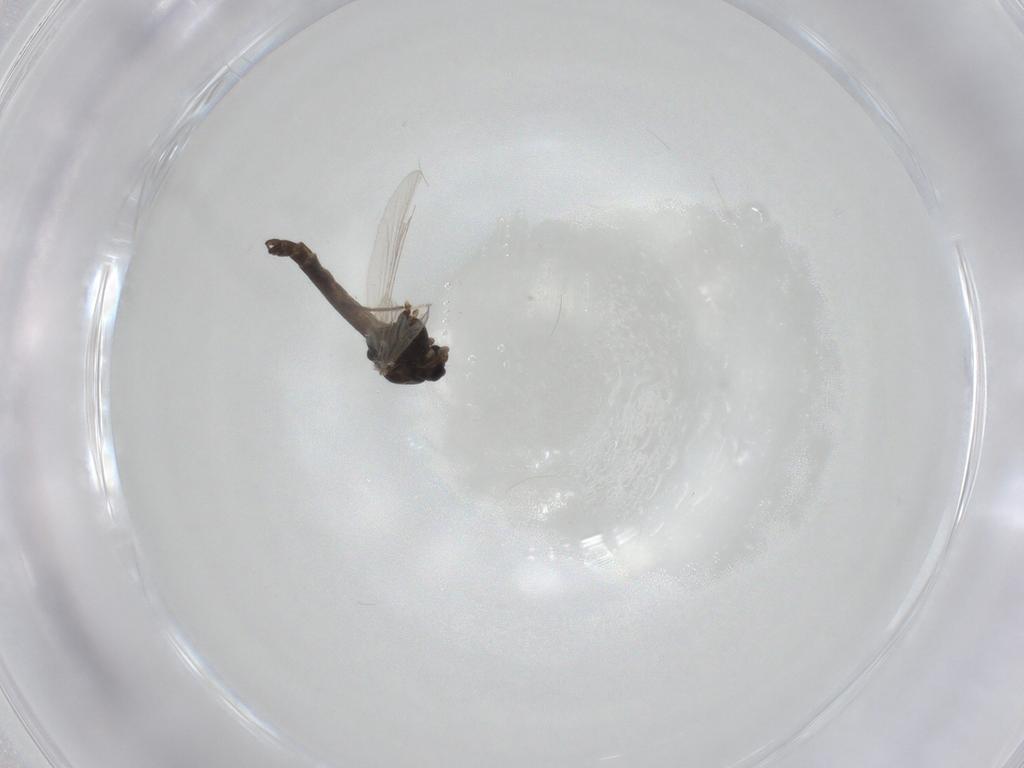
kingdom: Animalia
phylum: Arthropoda
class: Insecta
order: Diptera
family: Chironomidae
